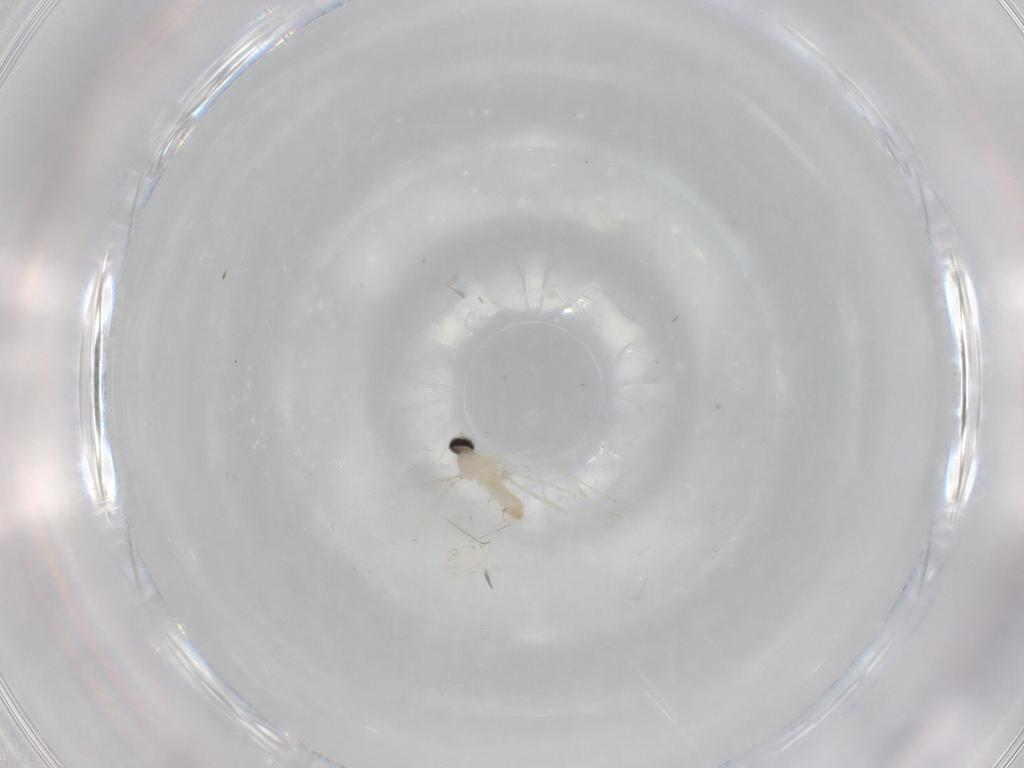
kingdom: Animalia
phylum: Arthropoda
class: Insecta
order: Diptera
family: Cecidomyiidae
